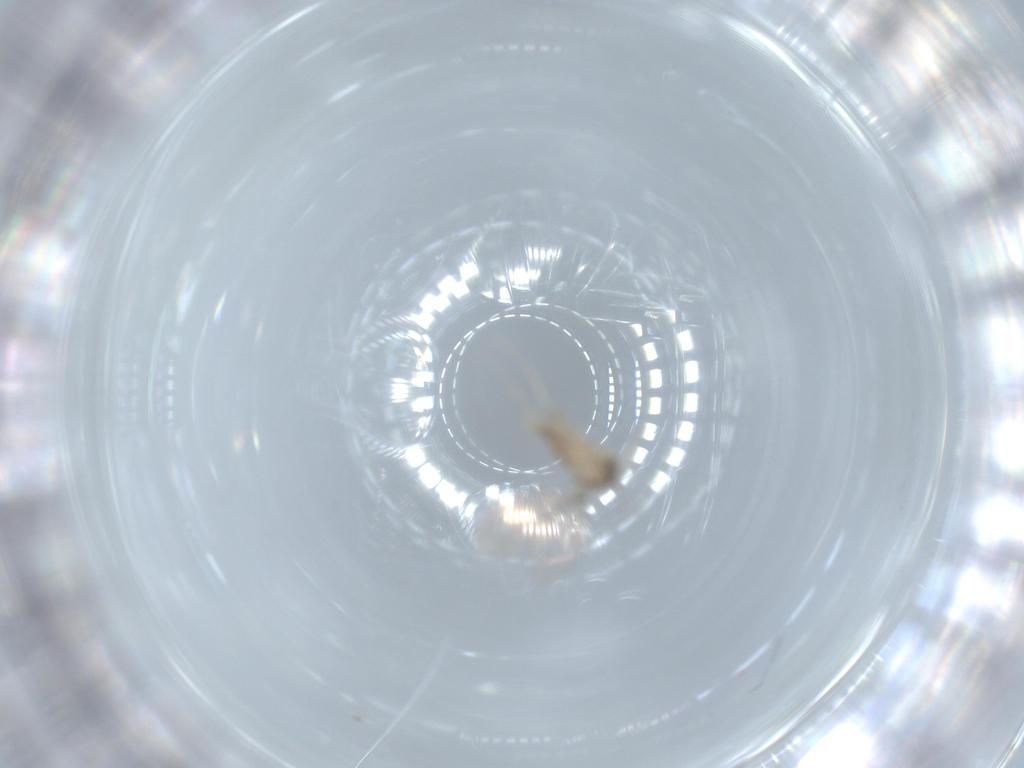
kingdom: Animalia
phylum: Arthropoda
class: Insecta
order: Diptera
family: Cecidomyiidae
